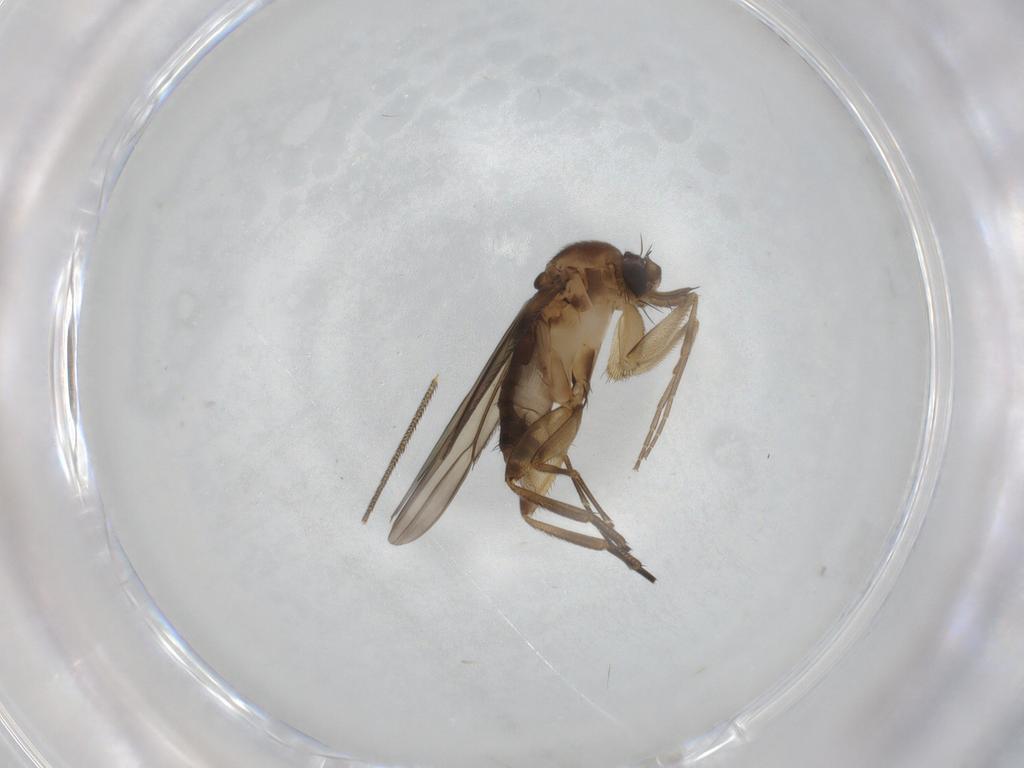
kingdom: Animalia
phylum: Arthropoda
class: Insecta
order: Diptera
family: Phoridae
